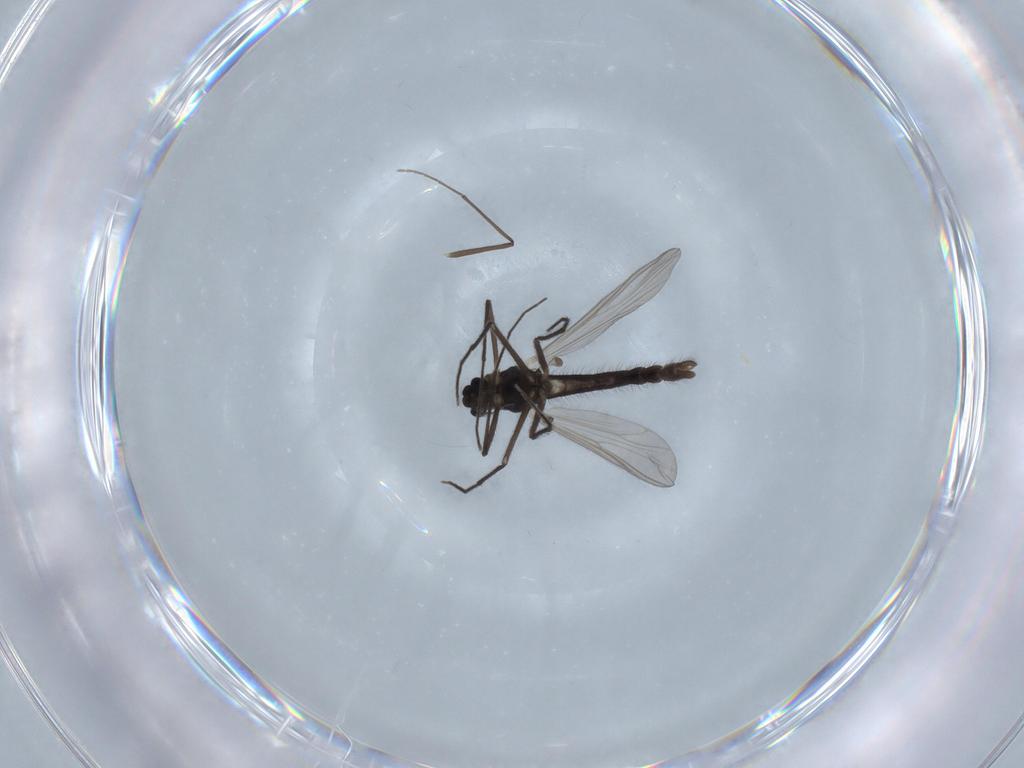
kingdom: Animalia
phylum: Arthropoda
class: Insecta
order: Diptera
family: Chironomidae
